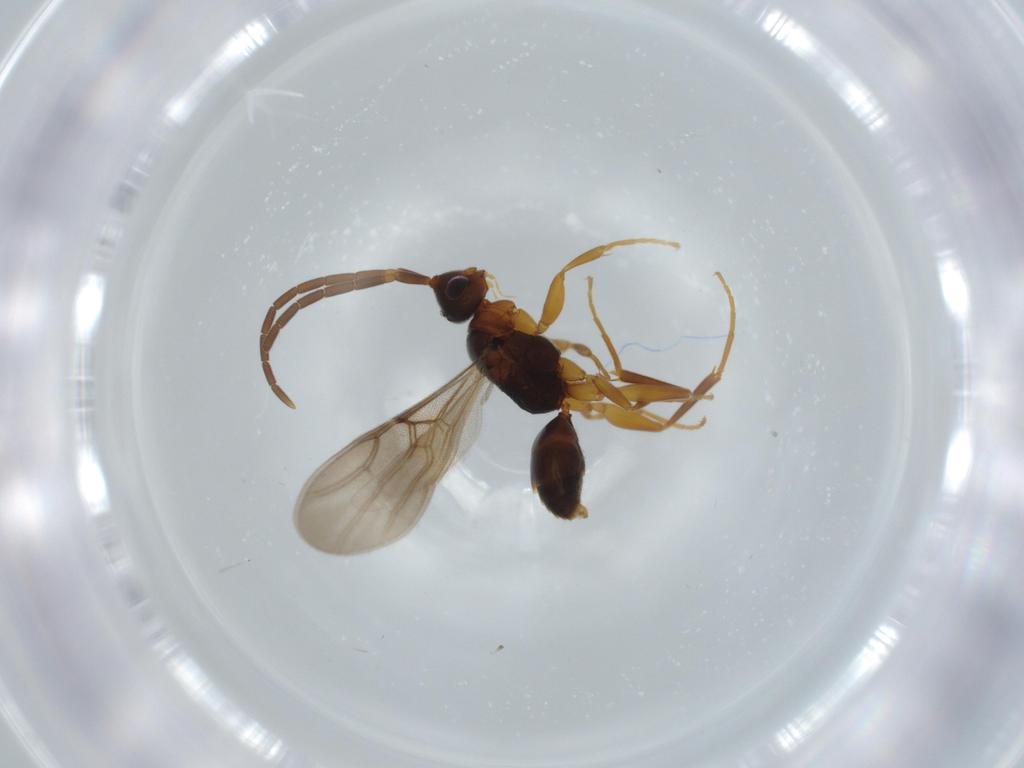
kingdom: Animalia
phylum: Arthropoda
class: Insecta
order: Hymenoptera
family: Embolemidae
